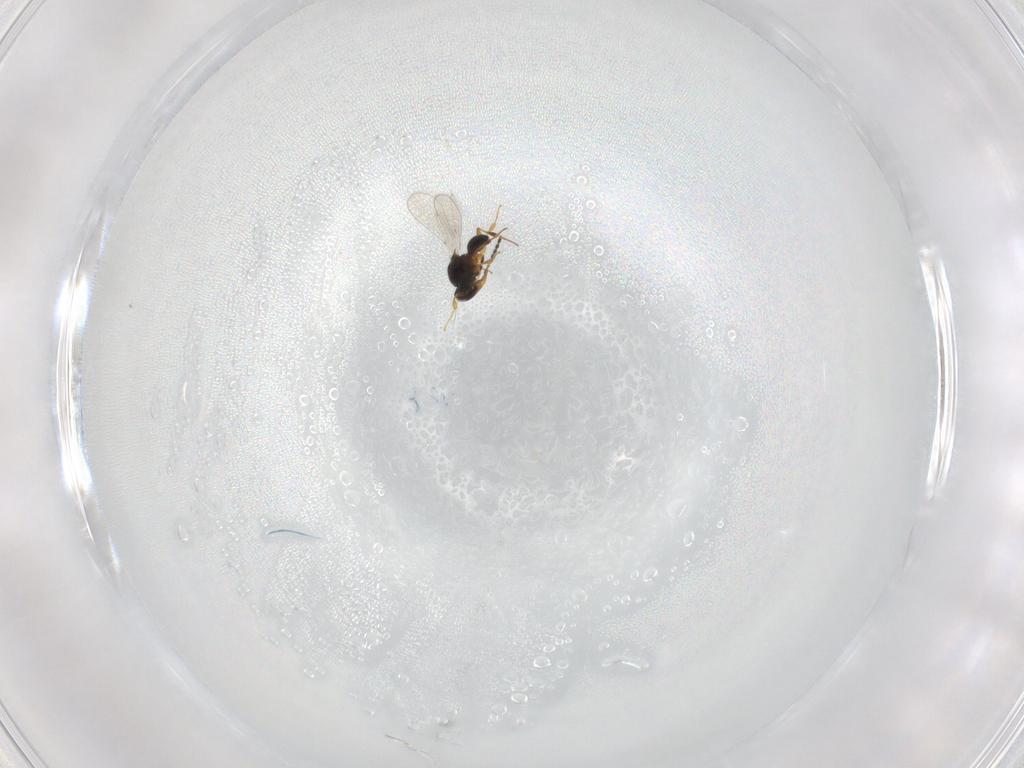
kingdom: Animalia
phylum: Arthropoda
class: Insecta
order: Hymenoptera
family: Platygastridae
